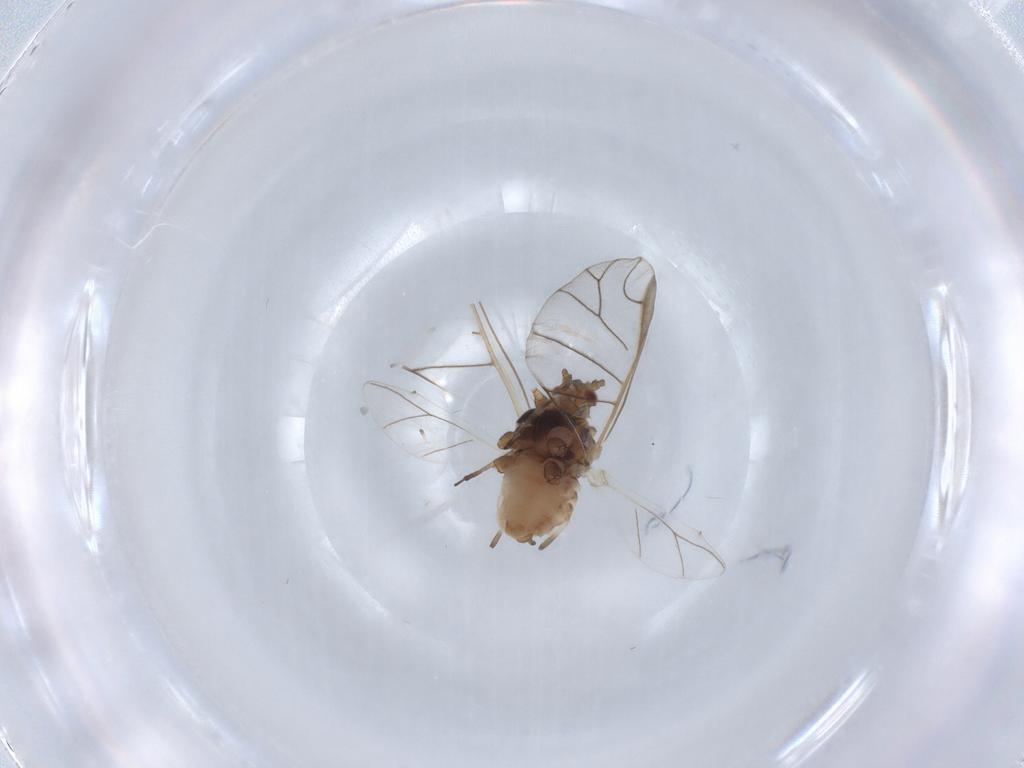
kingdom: Animalia
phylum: Arthropoda
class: Insecta
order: Hemiptera
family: Aphididae
